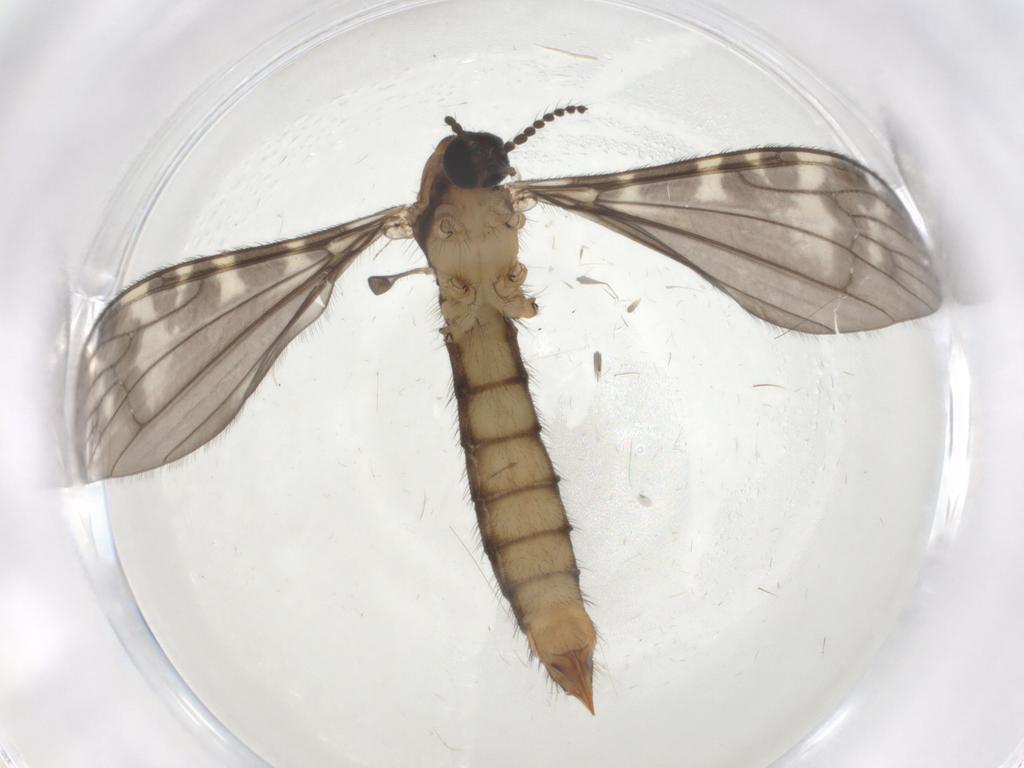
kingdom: Animalia
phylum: Arthropoda
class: Insecta
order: Diptera
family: Limoniidae
